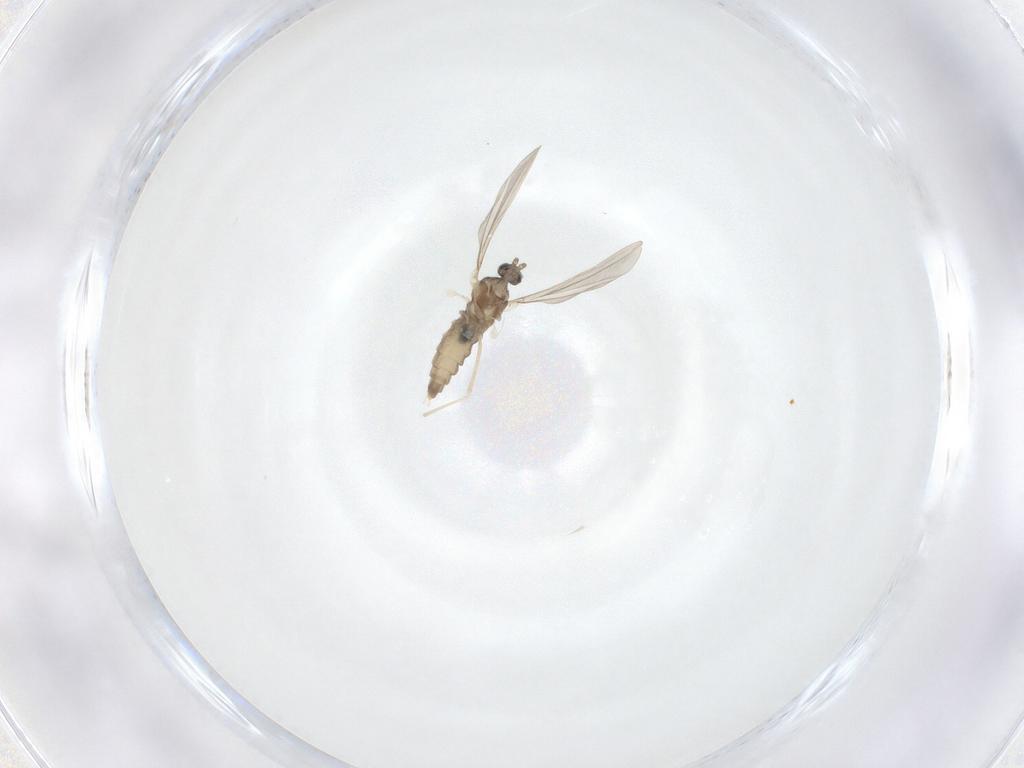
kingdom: Animalia
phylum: Arthropoda
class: Insecta
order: Diptera
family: Cecidomyiidae
